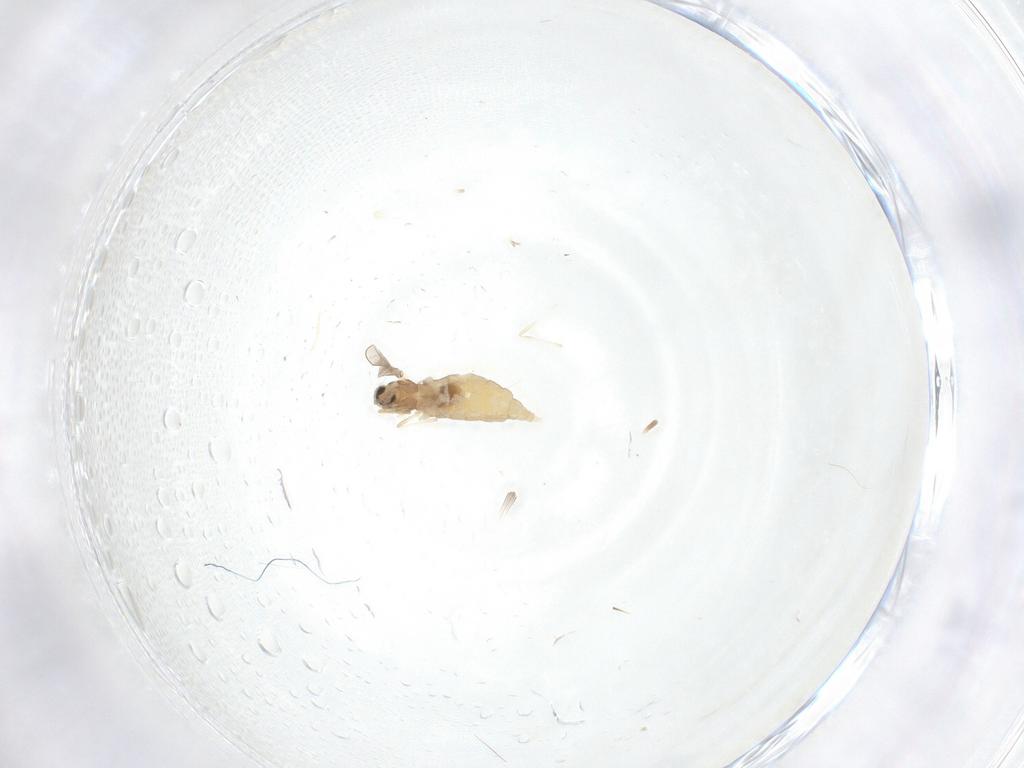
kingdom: Animalia
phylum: Arthropoda
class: Insecta
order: Diptera
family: Cecidomyiidae
